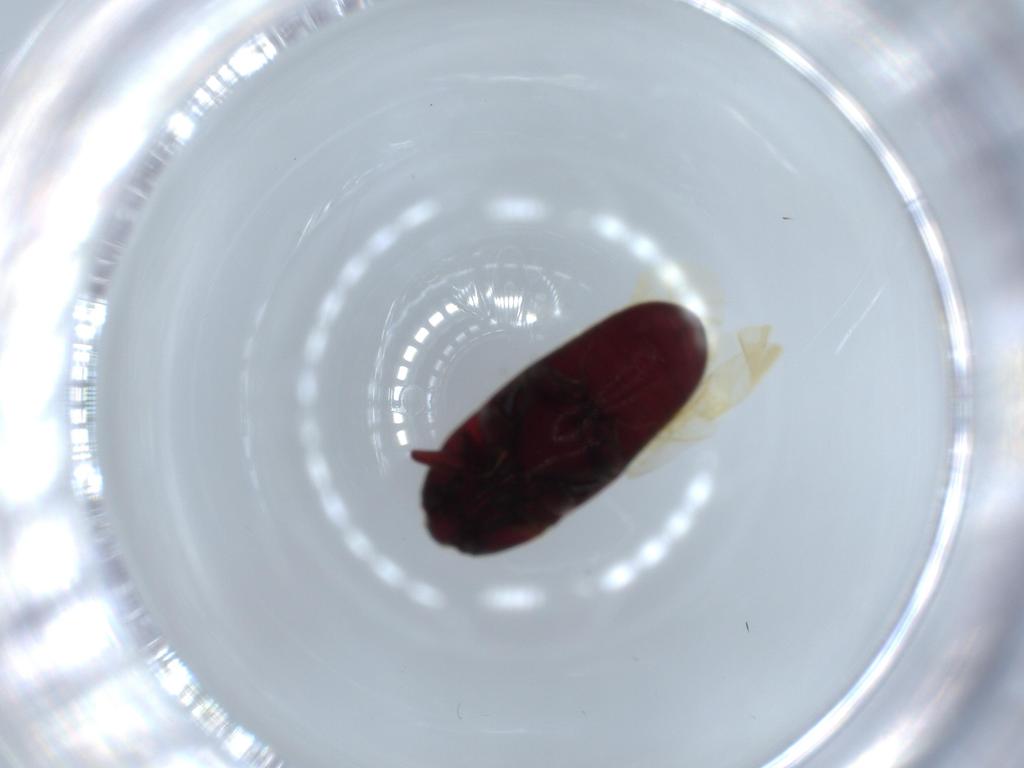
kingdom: Animalia
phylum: Arthropoda
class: Insecta
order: Coleoptera
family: Throscidae
